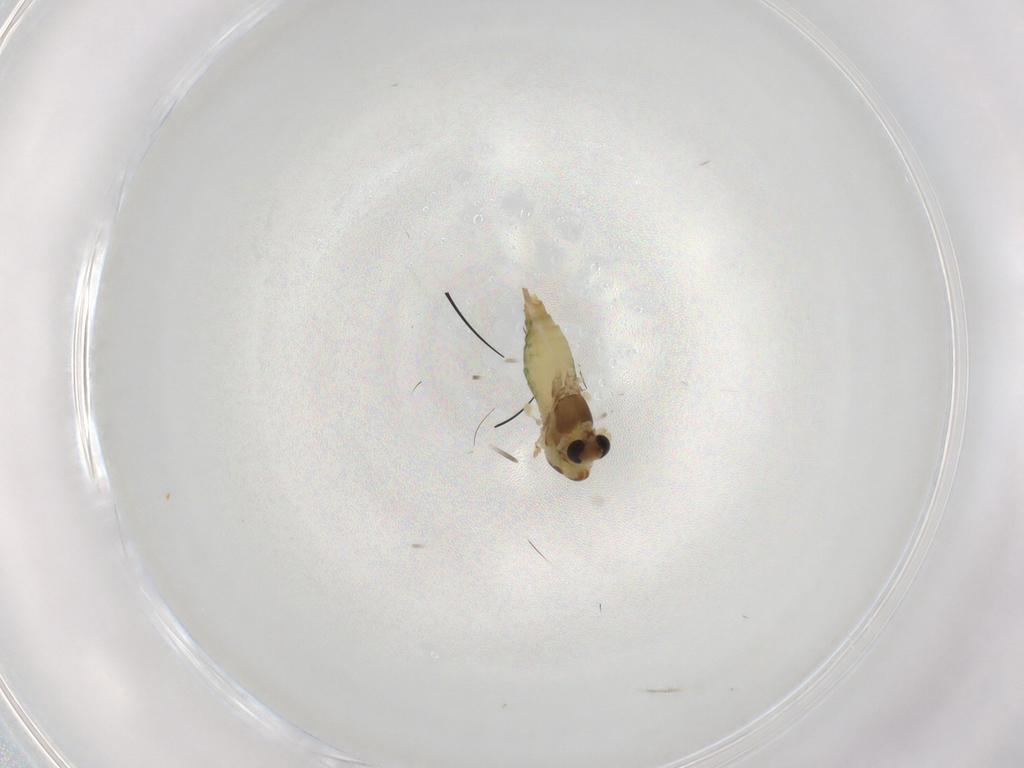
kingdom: Animalia
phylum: Arthropoda
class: Insecta
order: Diptera
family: Chironomidae
